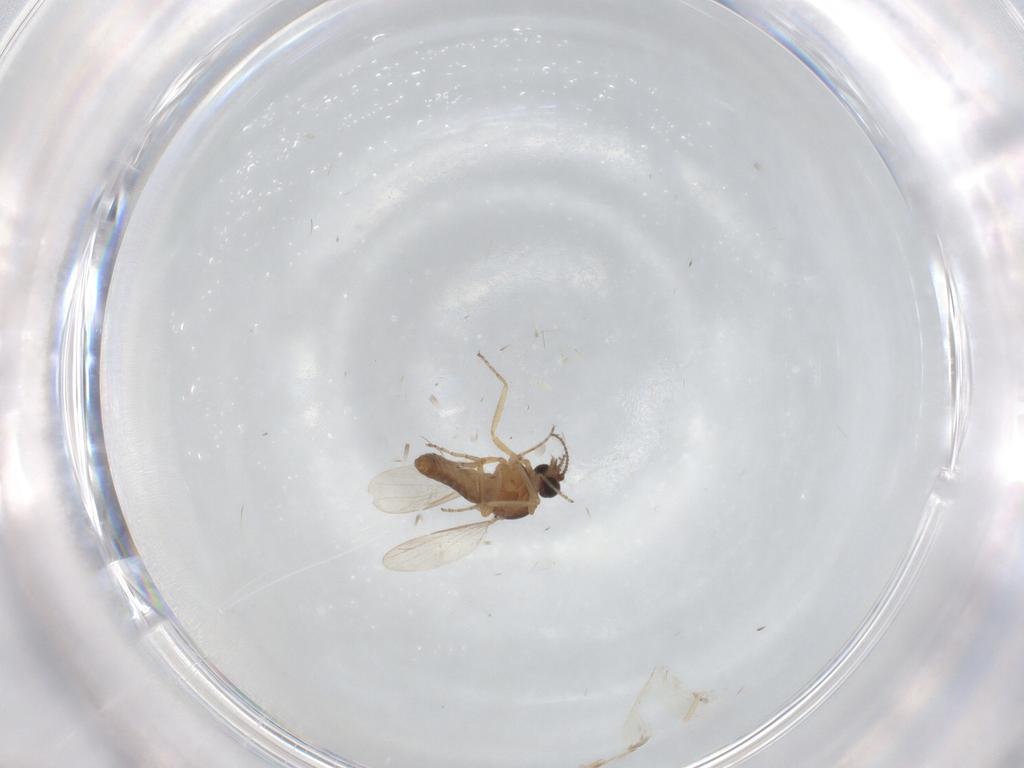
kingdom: Animalia
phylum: Arthropoda
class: Insecta
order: Diptera
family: Ceratopogonidae
